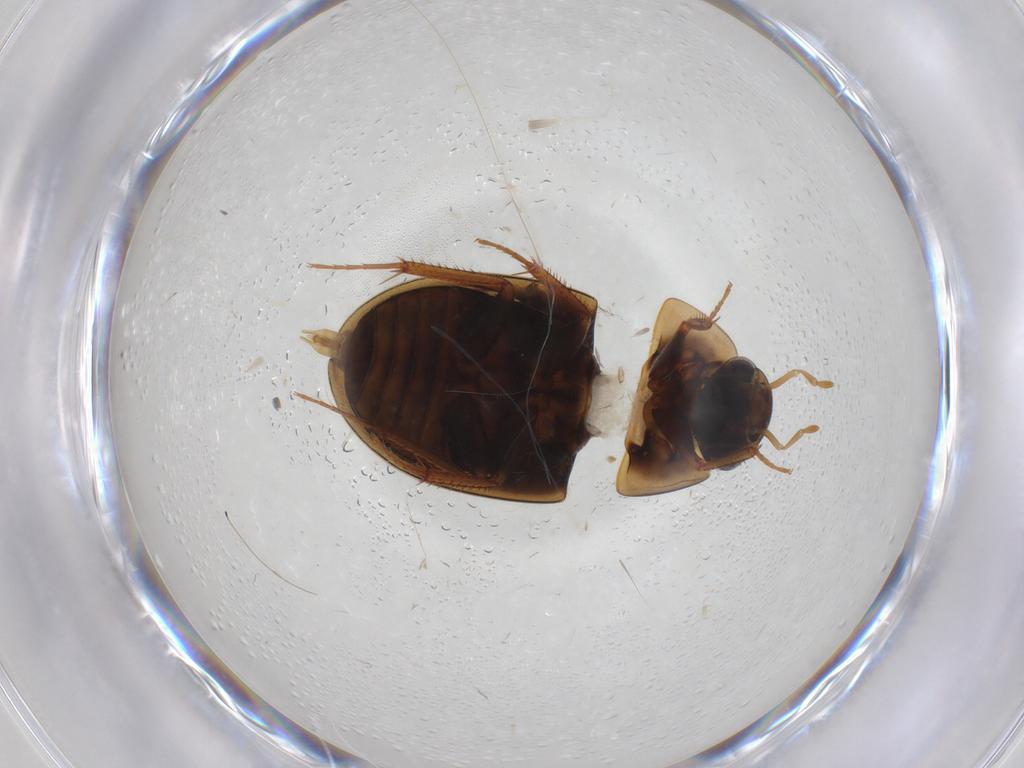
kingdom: Animalia
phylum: Arthropoda
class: Insecta
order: Coleoptera
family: Hydrophilidae
